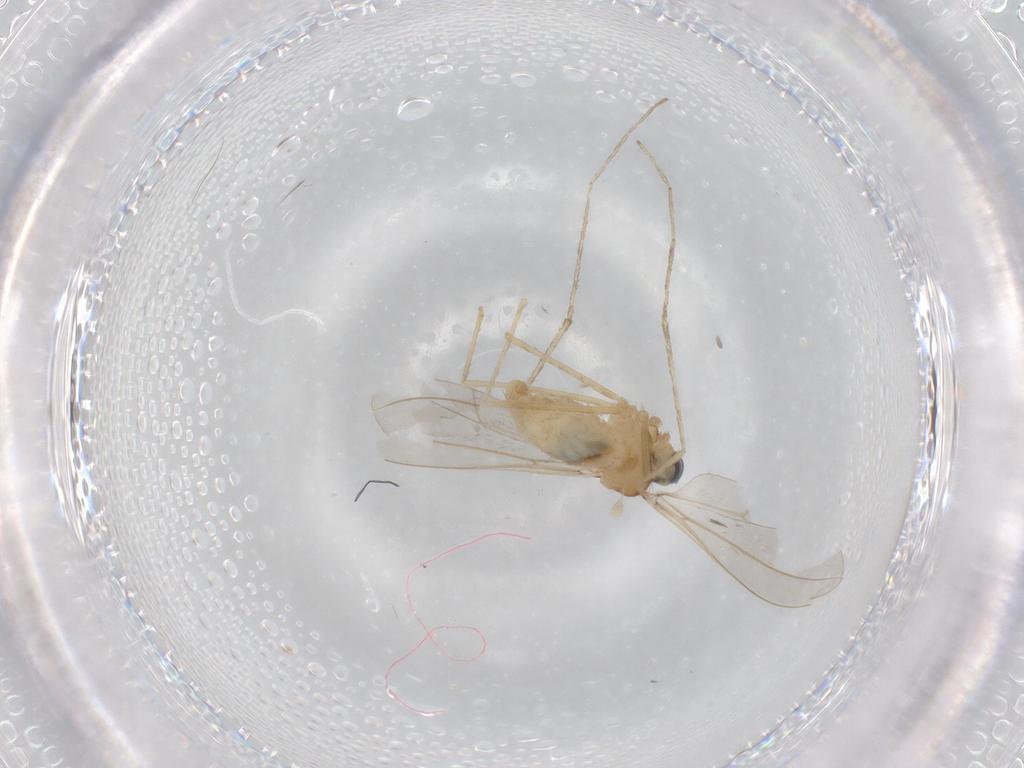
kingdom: Animalia
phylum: Arthropoda
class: Insecta
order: Diptera
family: Cecidomyiidae
